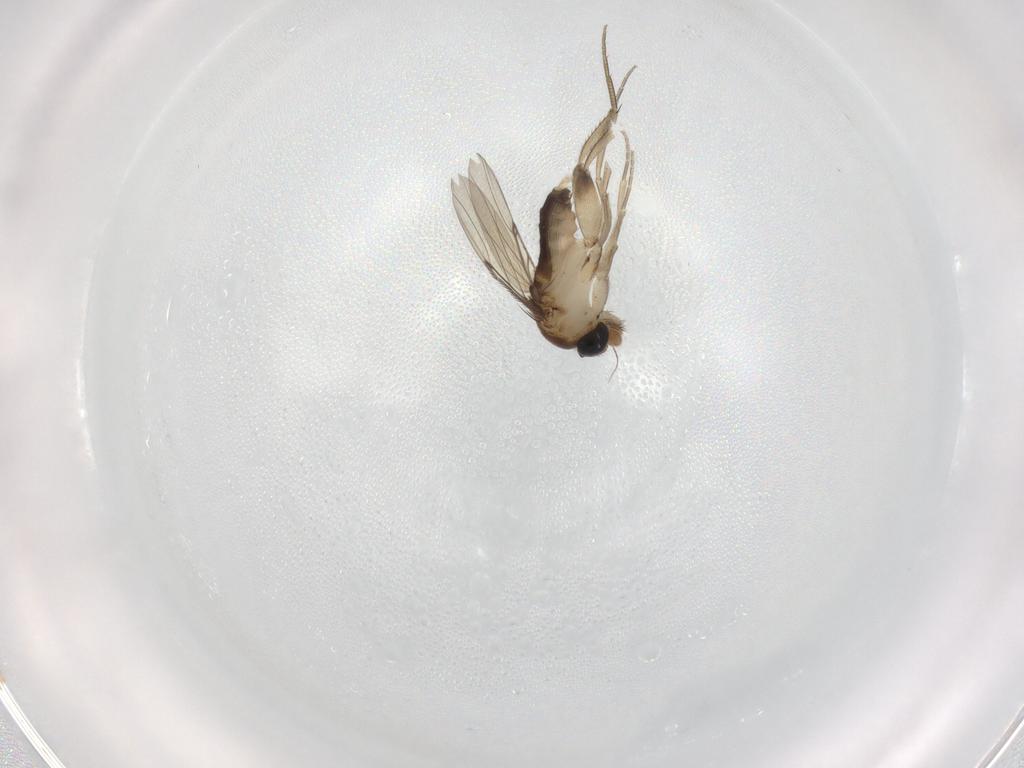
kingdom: Animalia
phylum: Arthropoda
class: Insecta
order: Diptera
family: Phoridae
